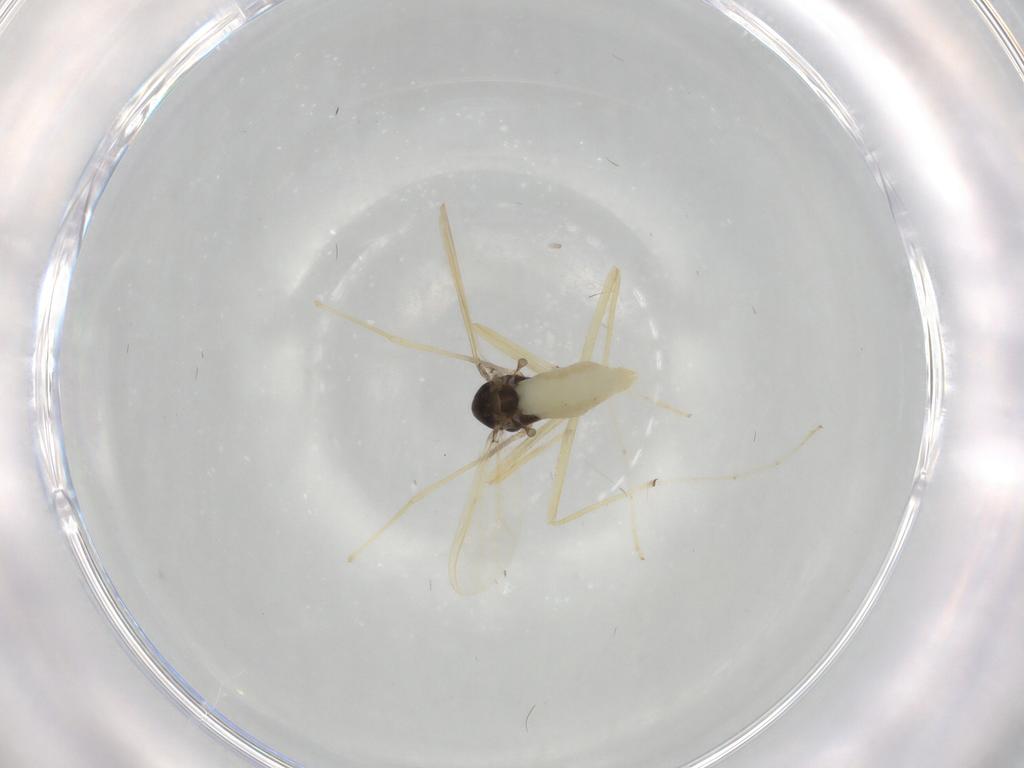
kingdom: Animalia
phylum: Arthropoda
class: Insecta
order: Diptera
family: Chironomidae
